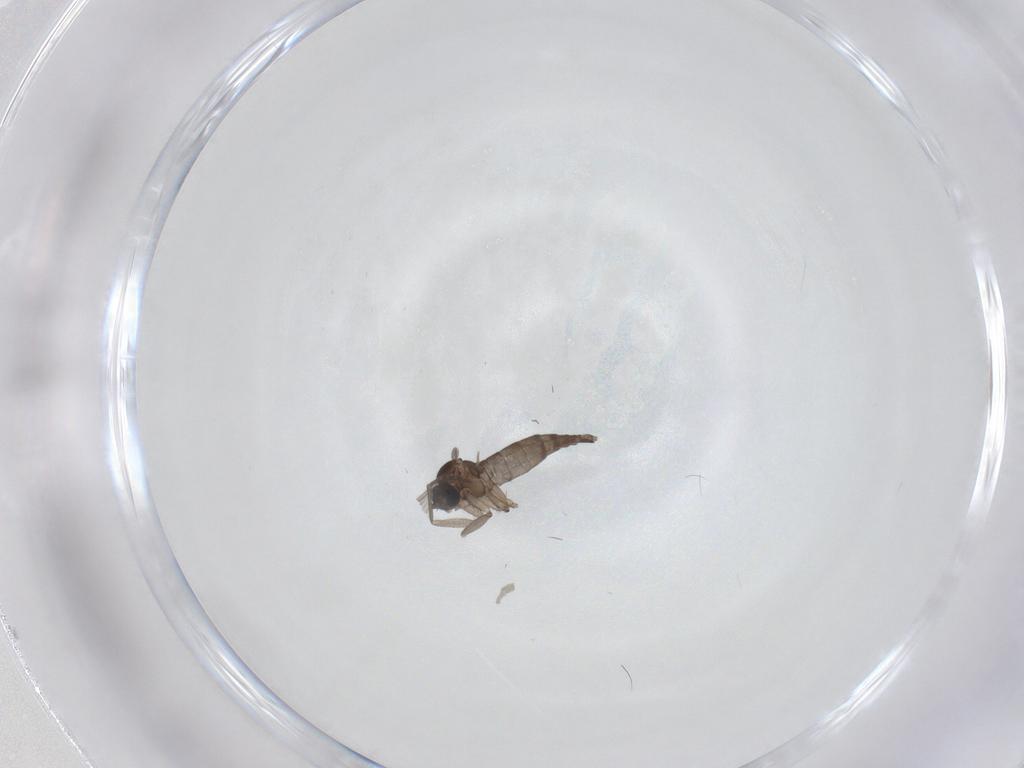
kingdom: Animalia
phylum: Arthropoda
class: Insecta
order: Diptera
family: Sciaridae
